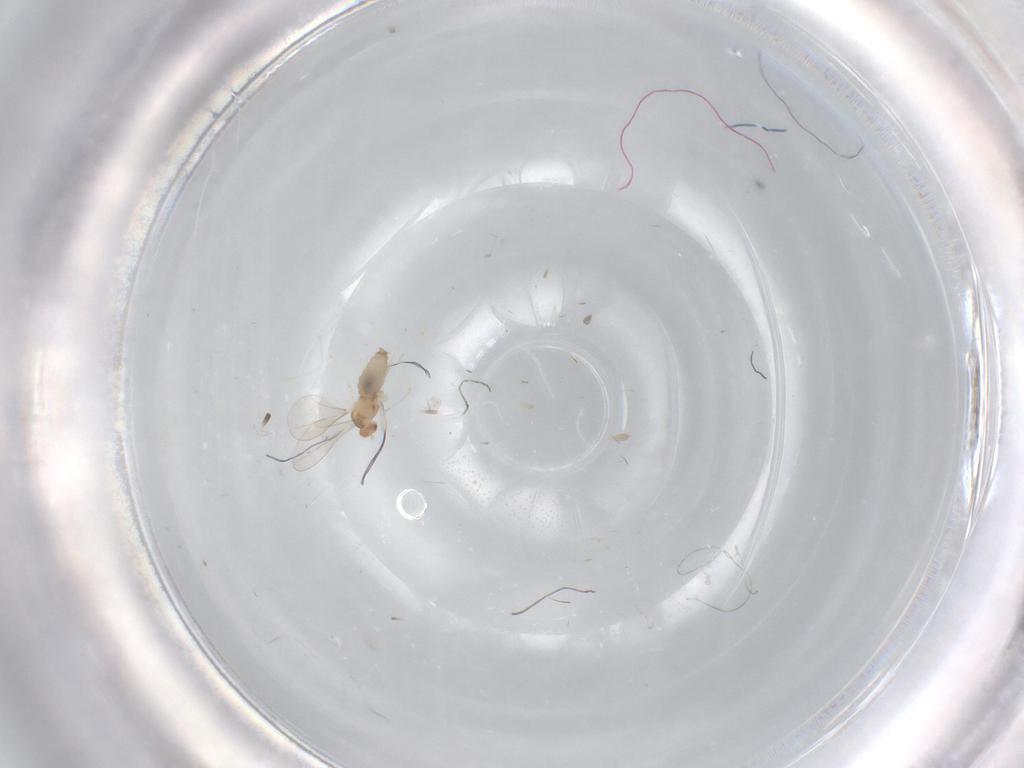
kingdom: Animalia
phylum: Arthropoda
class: Insecta
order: Diptera
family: Cecidomyiidae
